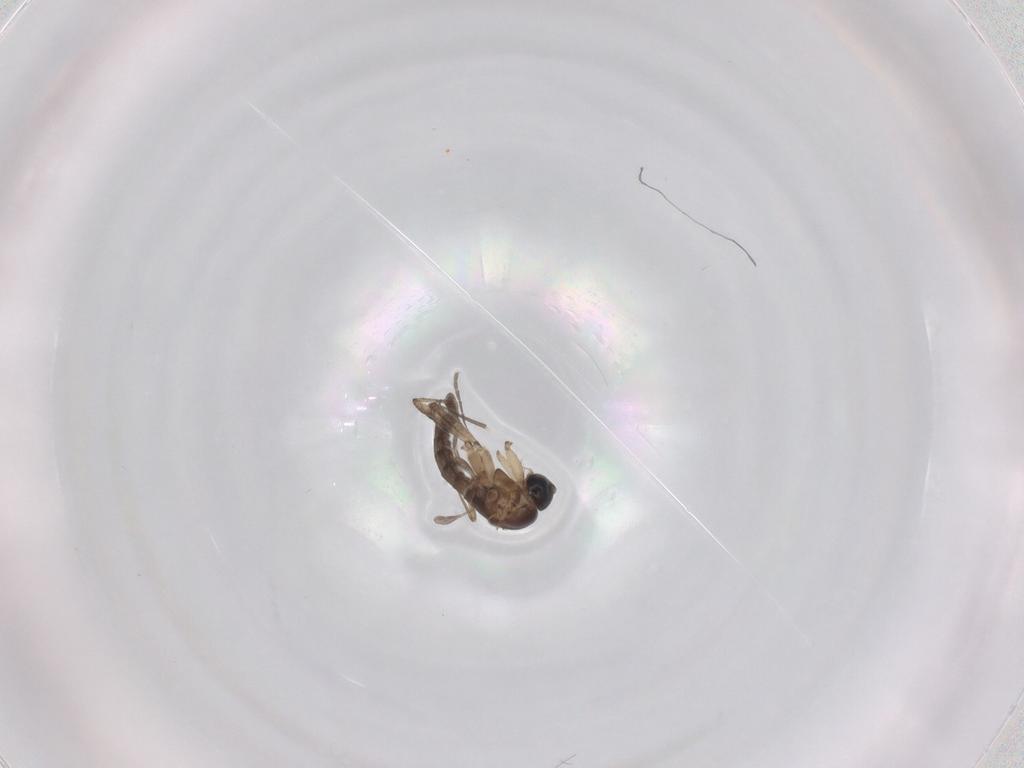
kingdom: Animalia
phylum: Arthropoda
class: Insecta
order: Diptera
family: Sciaridae
